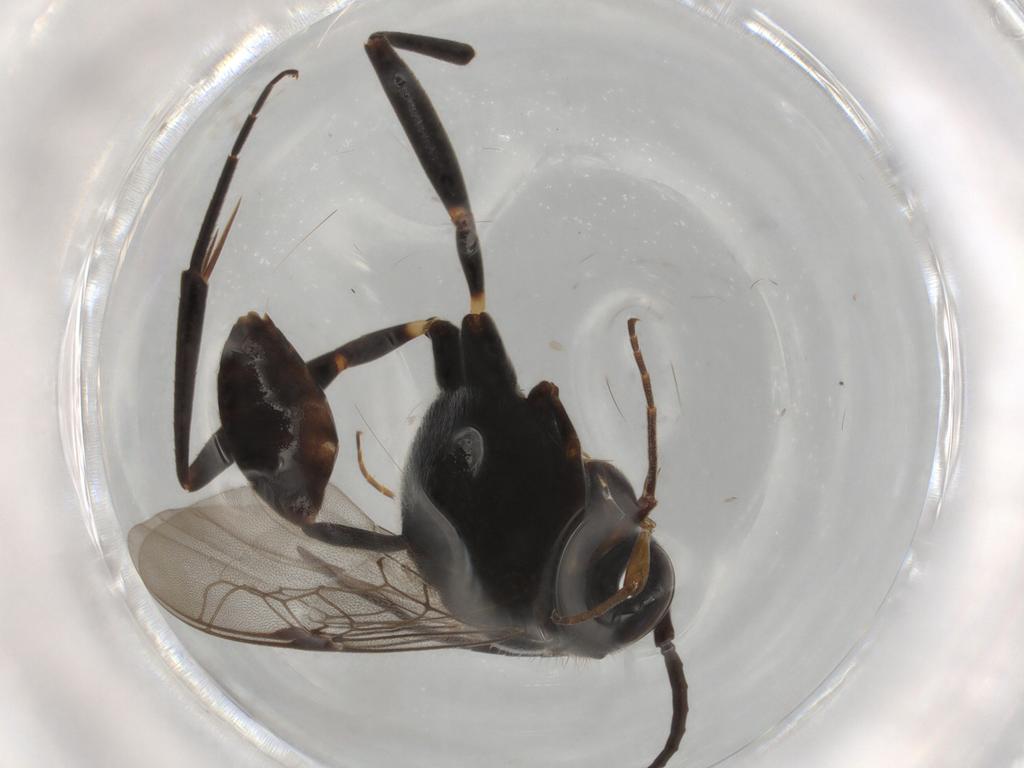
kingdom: Animalia
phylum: Arthropoda
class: Insecta
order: Hymenoptera
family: Evaniidae
